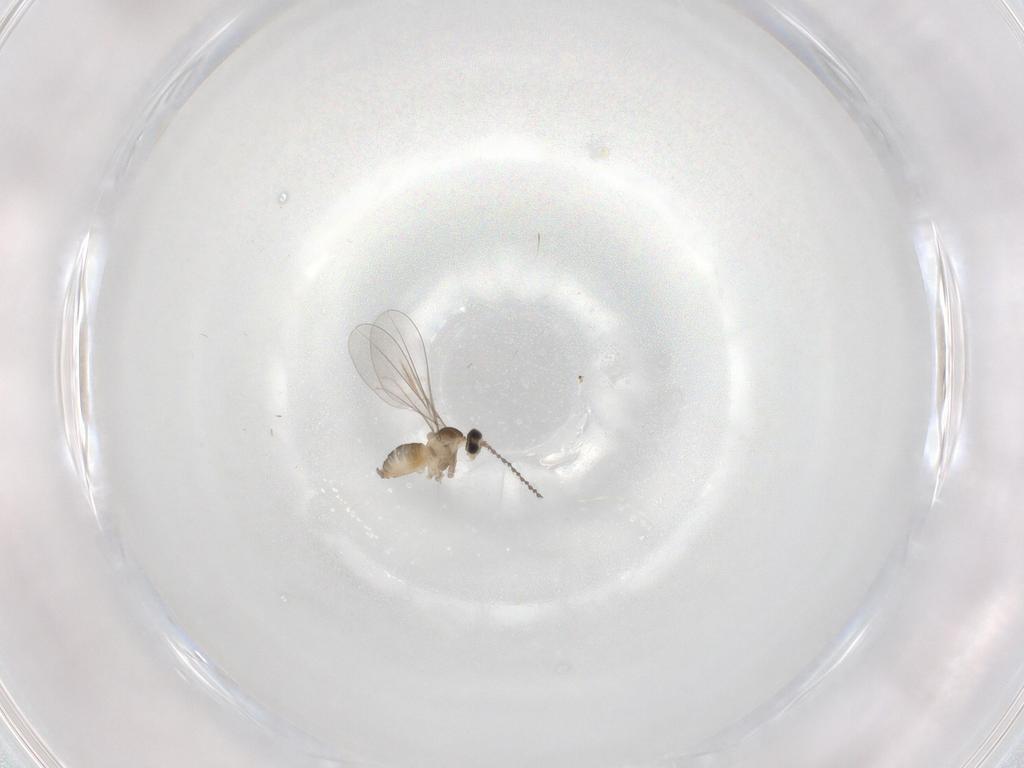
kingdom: Animalia
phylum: Arthropoda
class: Insecta
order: Diptera
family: Cecidomyiidae
